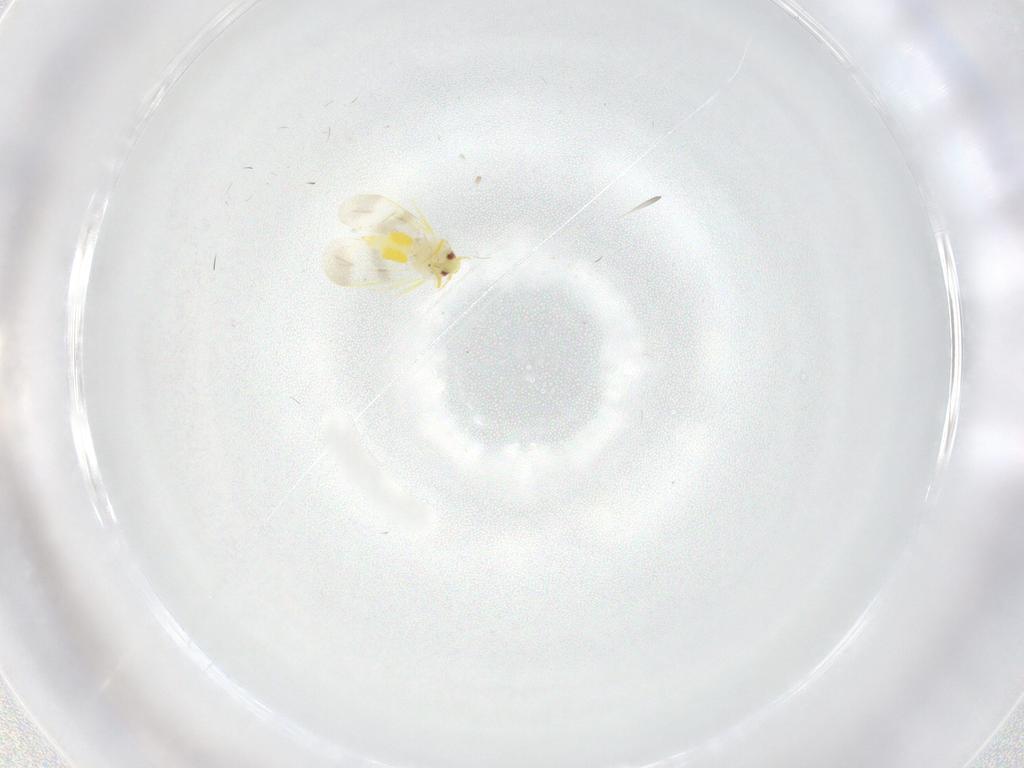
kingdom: Animalia
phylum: Arthropoda
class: Insecta
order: Hemiptera
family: Aleyrodidae
